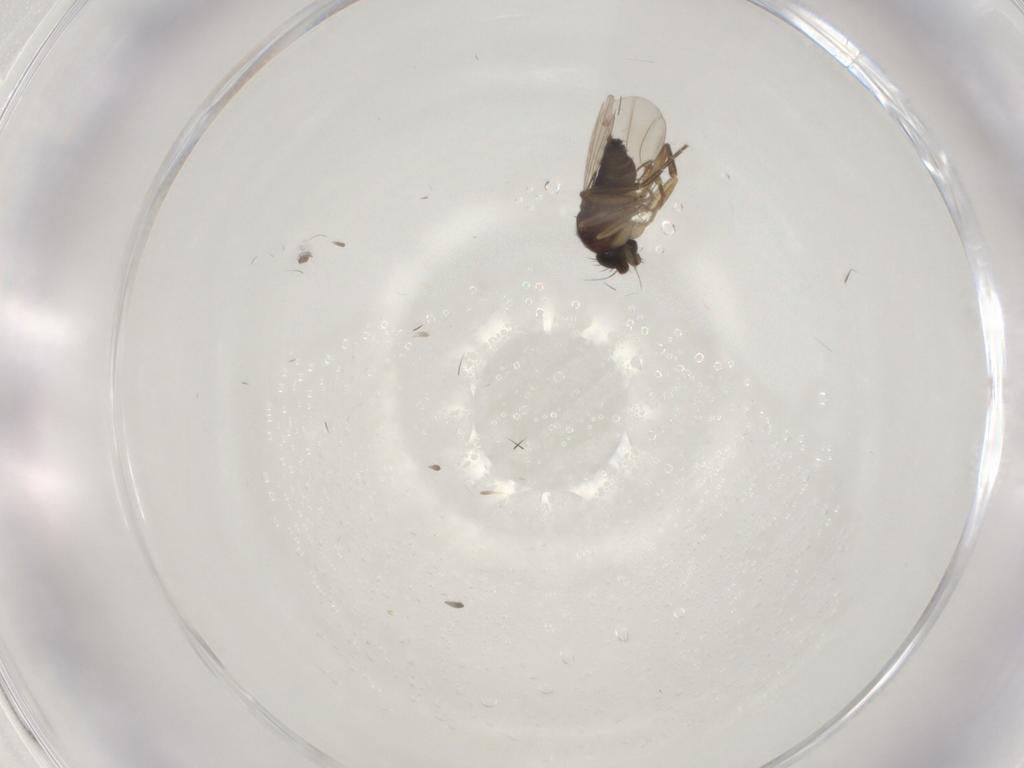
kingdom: Animalia
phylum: Arthropoda
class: Insecta
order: Diptera
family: Phoridae
